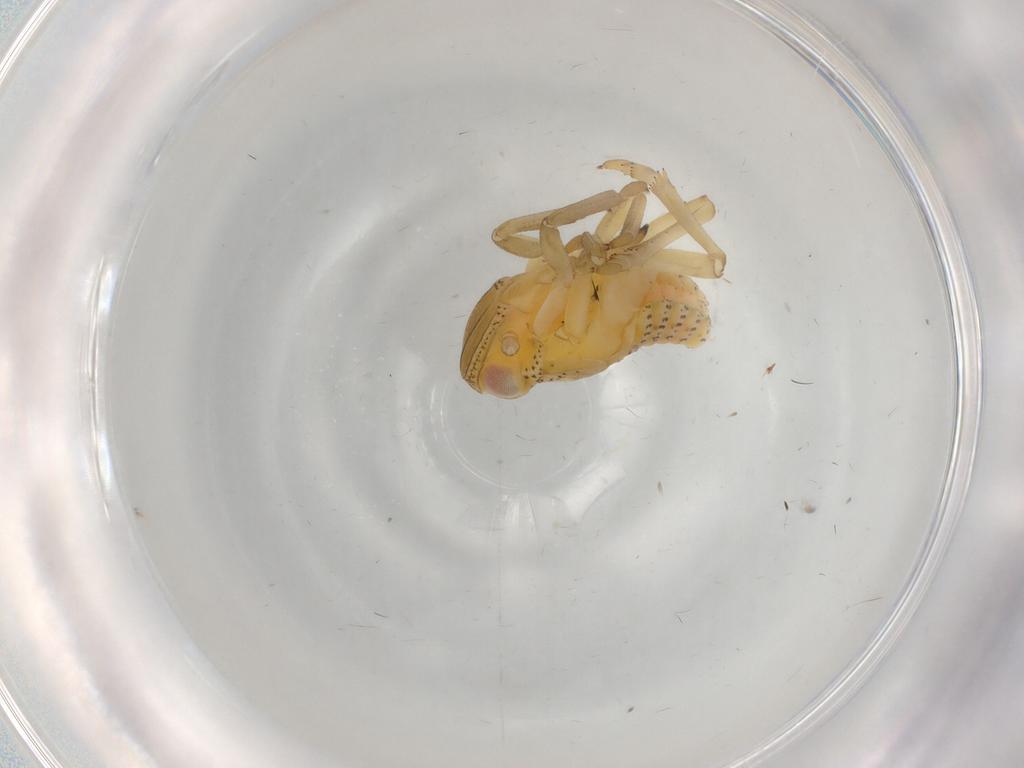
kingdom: Animalia
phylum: Arthropoda
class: Insecta
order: Hemiptera
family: Tropiduchidae
